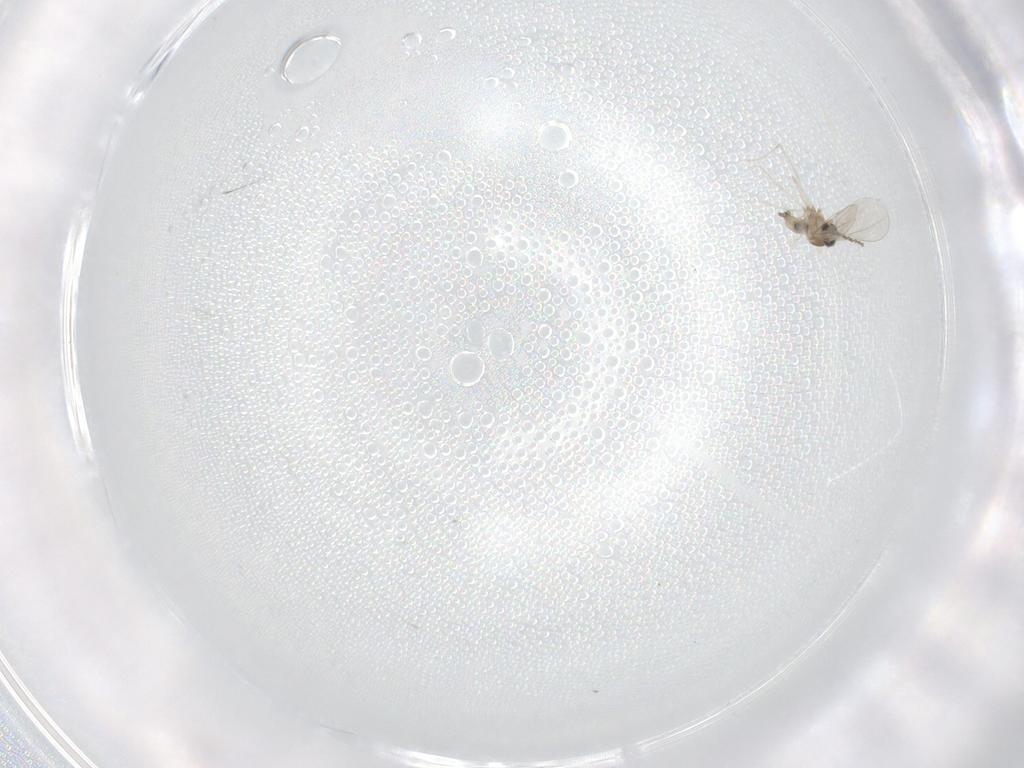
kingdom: Animalia
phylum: Arthropoda
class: Insecta
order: Diptera
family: Cecidomyiidae
